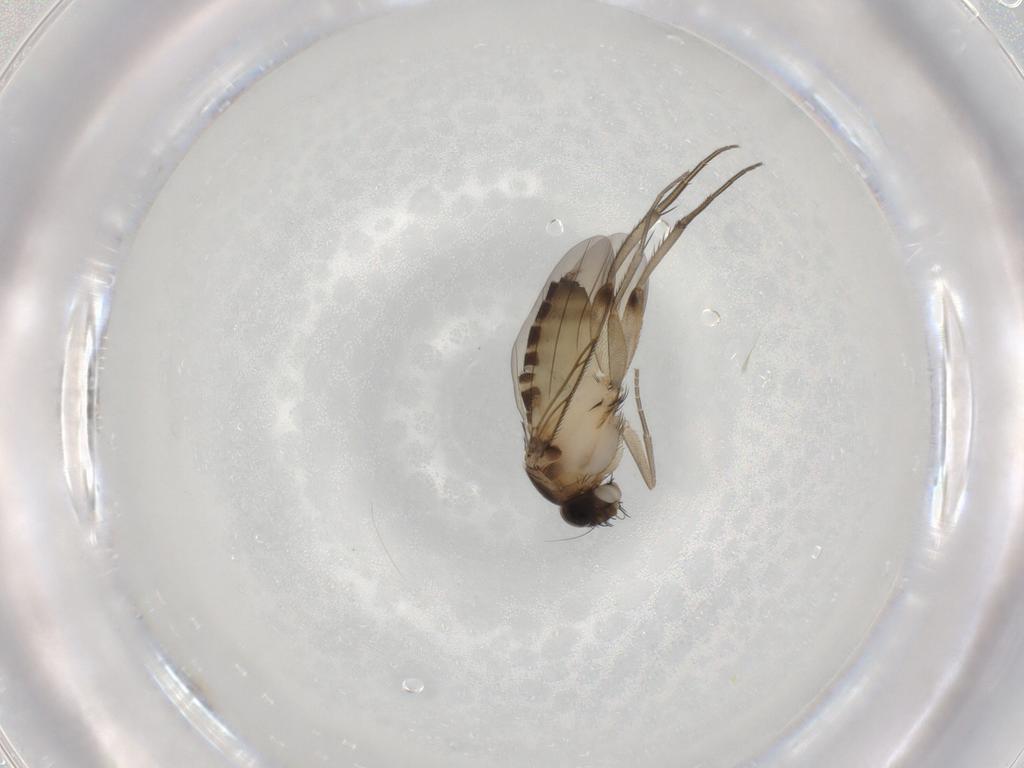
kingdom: Animalia
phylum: Arthropoda
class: Insecta
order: Diptera
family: Phoridae
